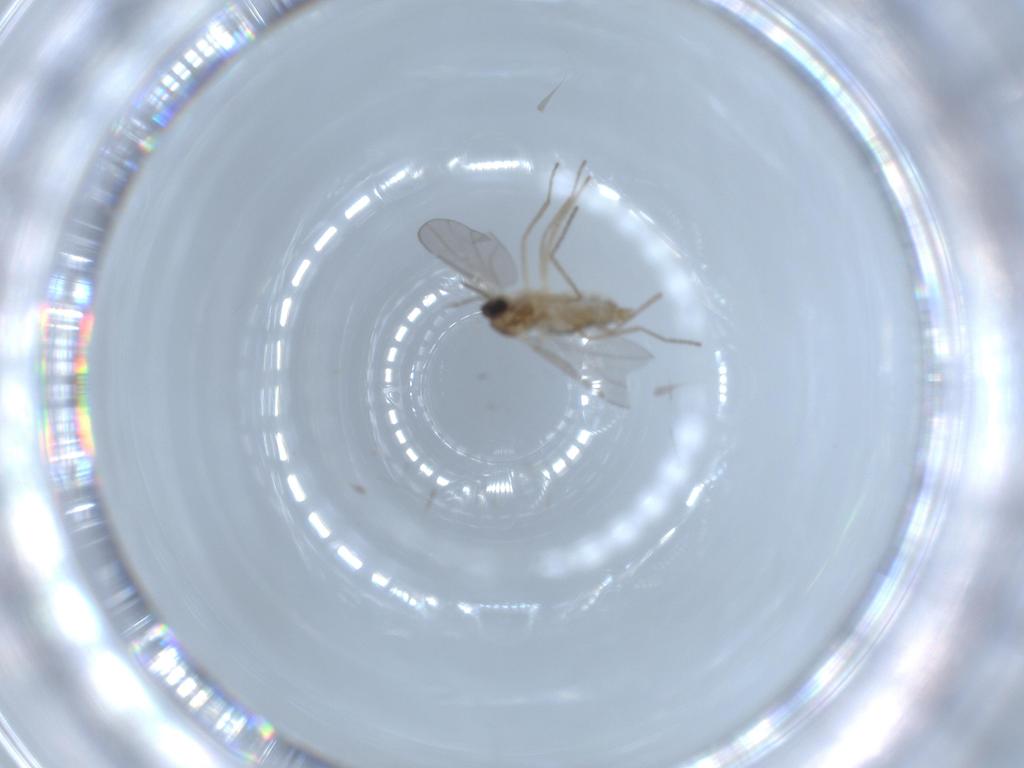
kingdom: Animalia
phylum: Arthropoda
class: Insecta
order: Diptera
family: Cecidomyiidae
